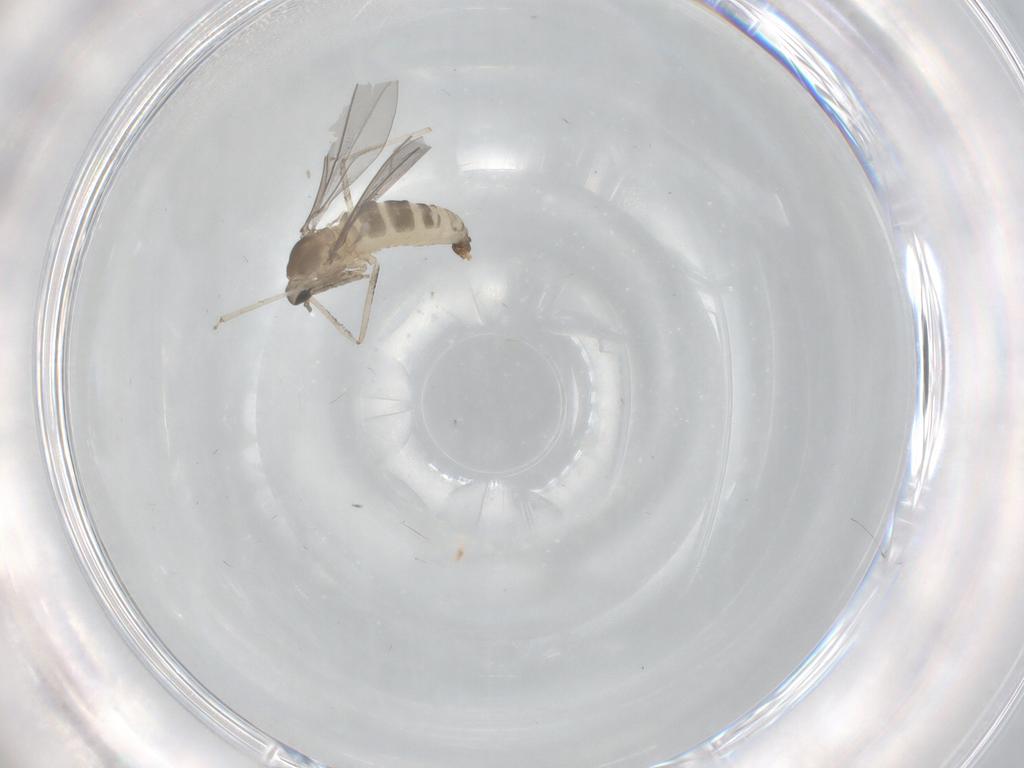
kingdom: Animalia
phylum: Arthropoda
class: Insecta
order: Diptera
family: Cecidomyiidae
